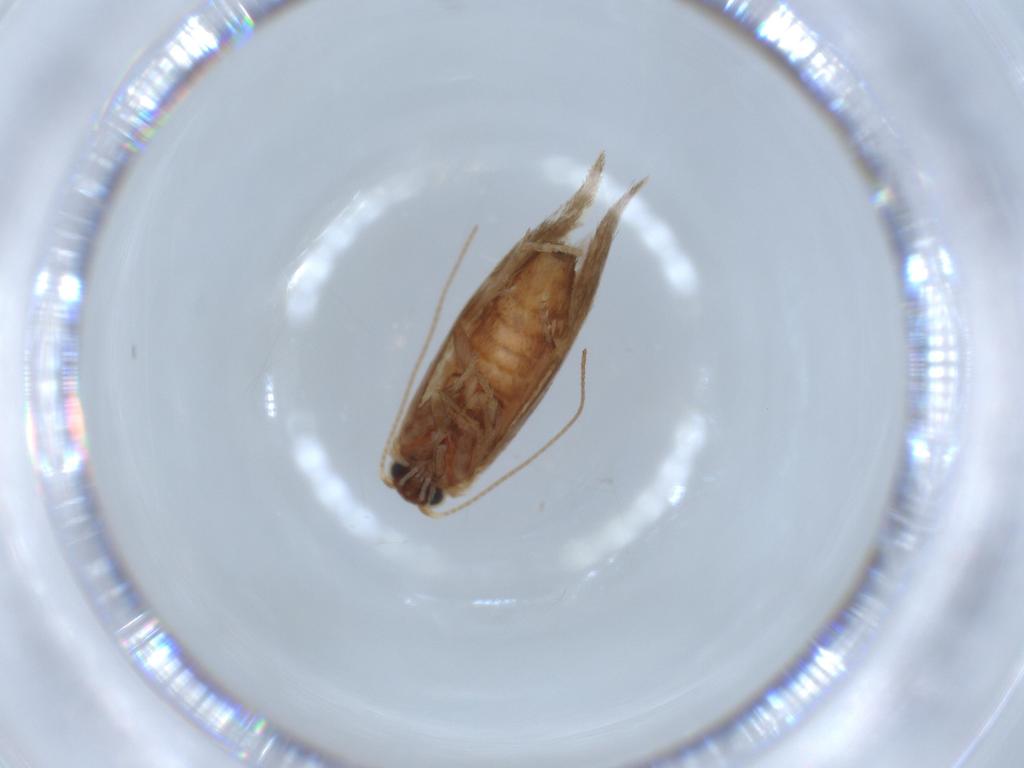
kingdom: Animalia
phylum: Arthropoda
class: Insecta
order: Lepidoptera
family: Incurvariidae
